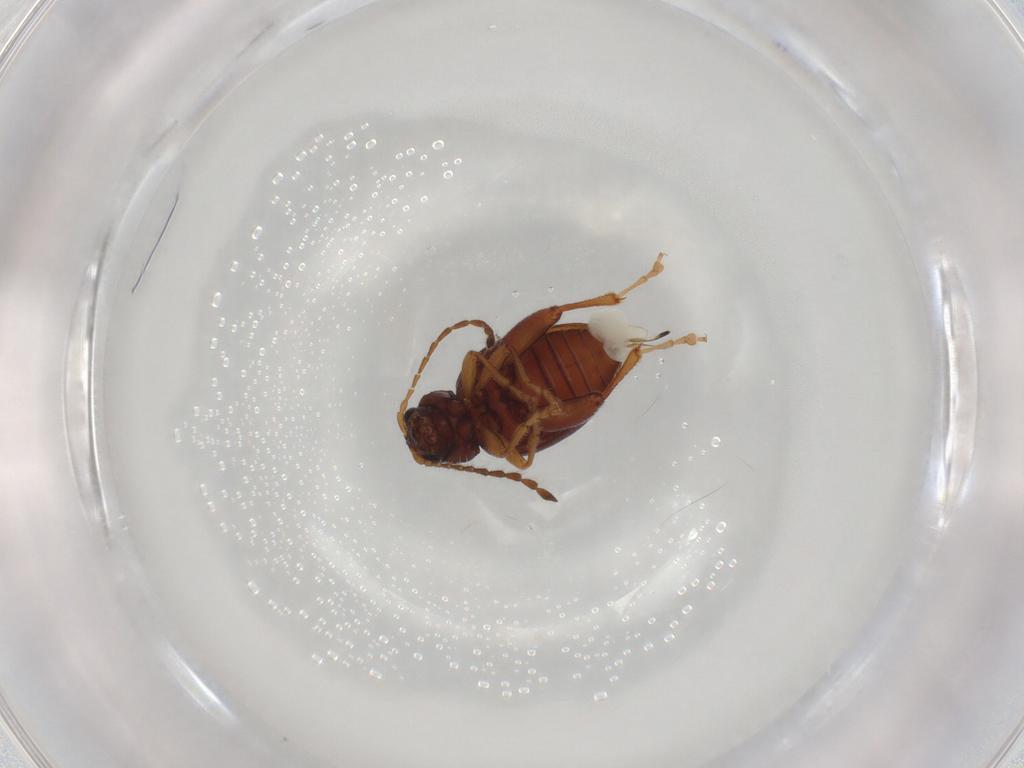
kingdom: Animalia
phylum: Arthropoda
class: Insecta
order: Coleoptera
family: Chrysomelidae
